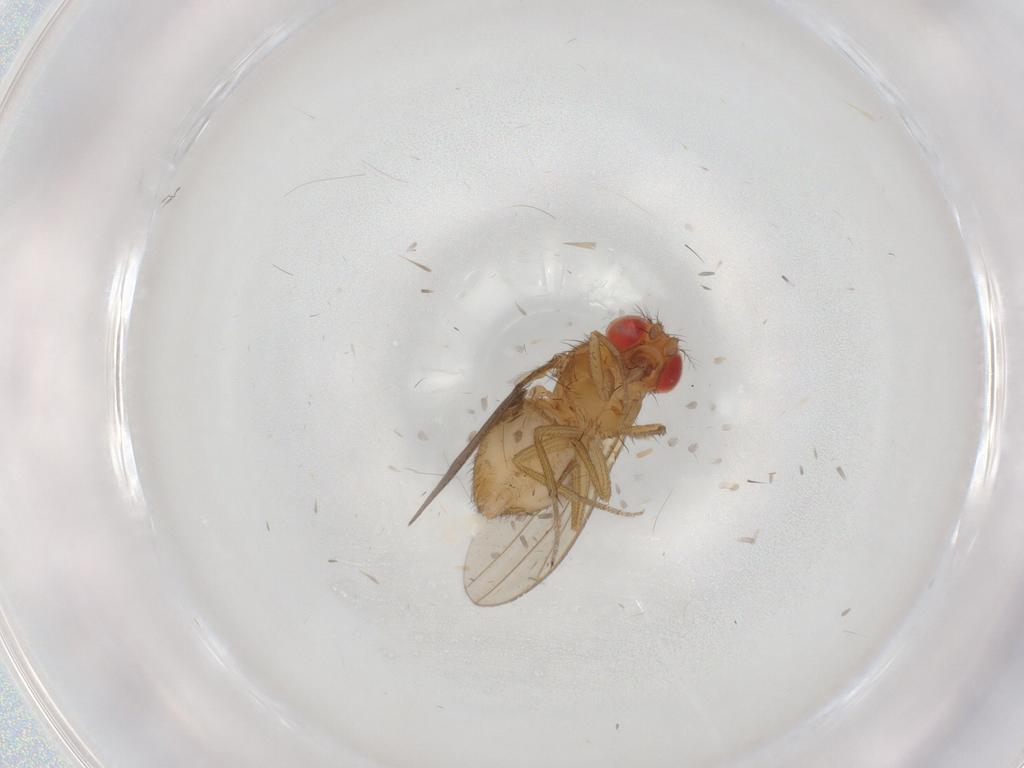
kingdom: Animalia
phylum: Arthropoda
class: Insecta
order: Diptera
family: Drosophilidae
